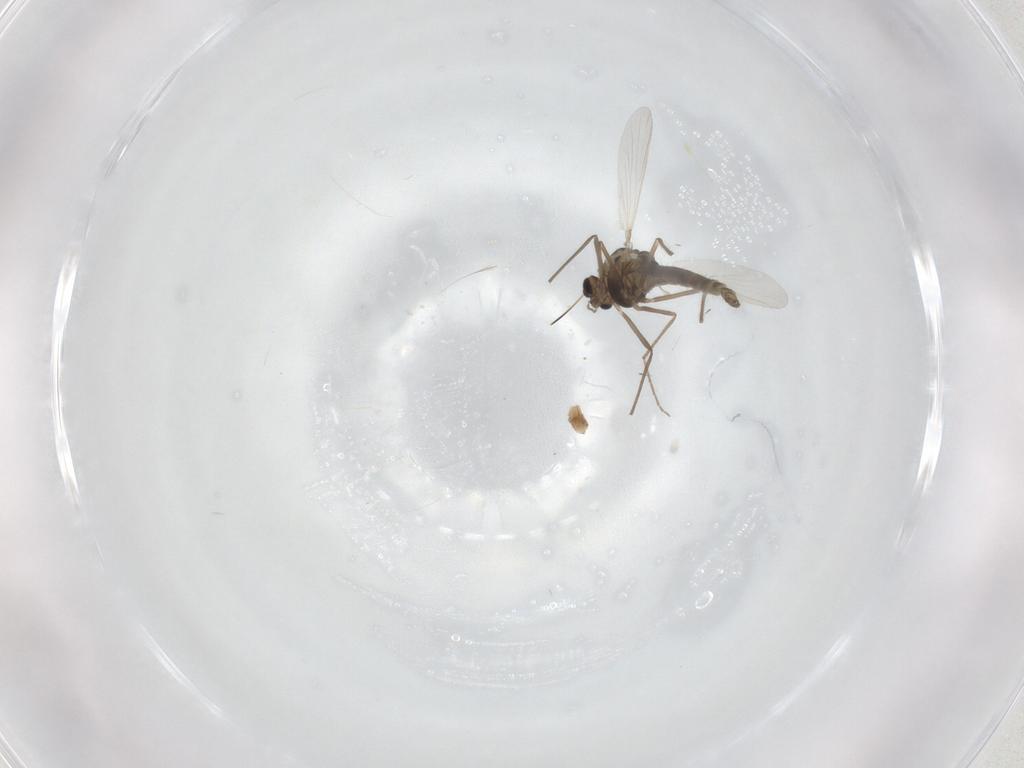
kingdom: Animalia
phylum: Arthropoda
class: Insecta
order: Diptera
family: Chironomidae
